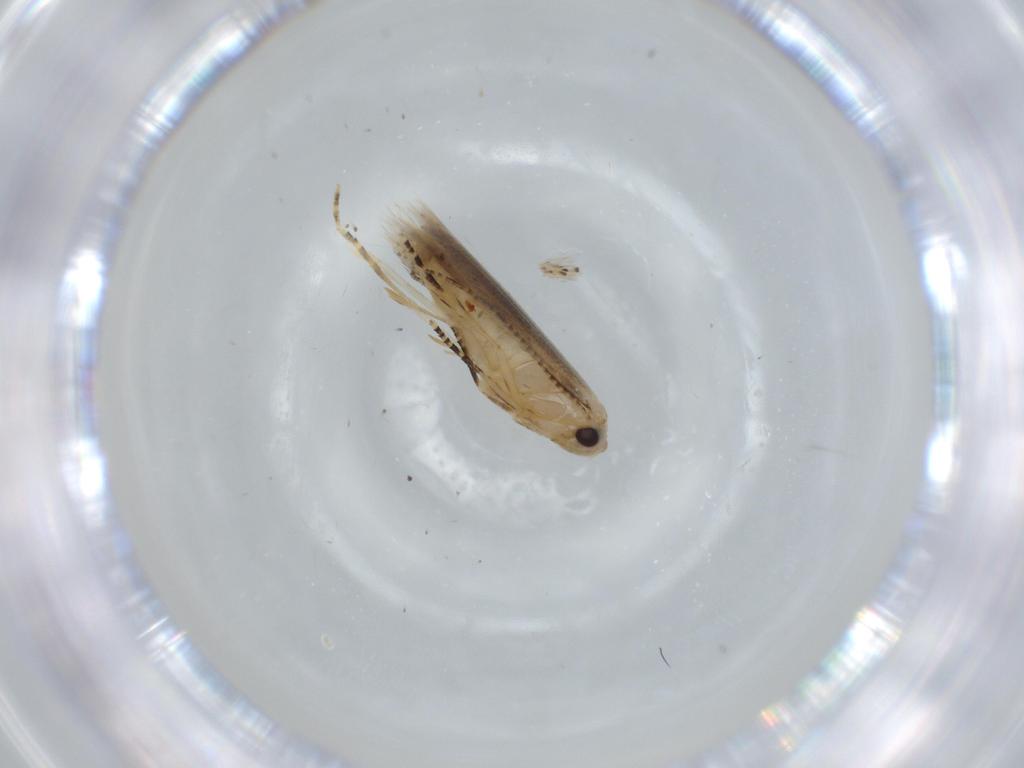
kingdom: Animalia
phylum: Arthropoda
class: Insecta
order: Lepidoptera
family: Bucculatricidae
